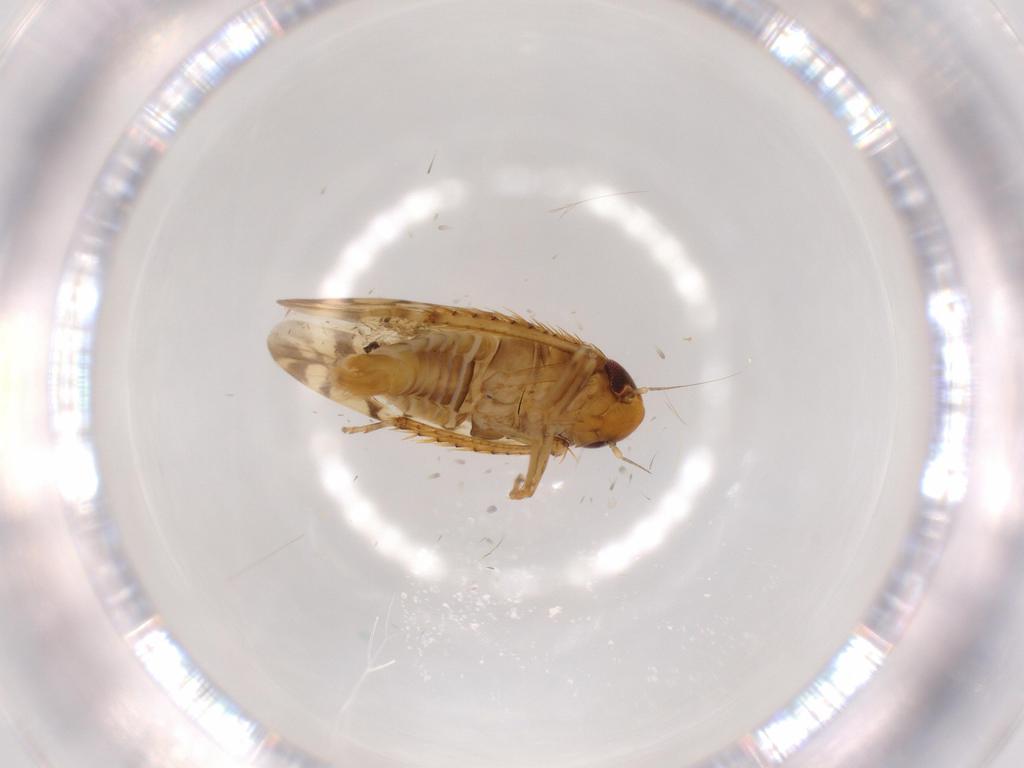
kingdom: Animalia
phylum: Arthropoda
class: Insecta
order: Hemiptera
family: Cicadellidae
